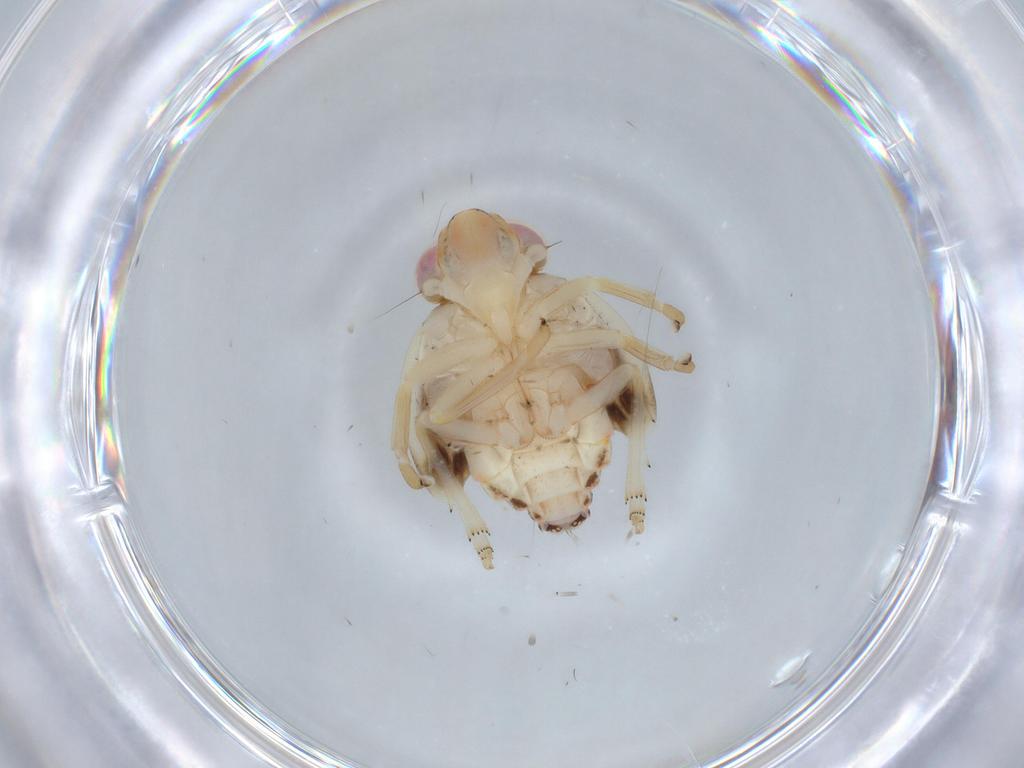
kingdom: Animalia
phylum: Arthropoda
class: Insecta
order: Hemiptera
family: Nogodinidae
